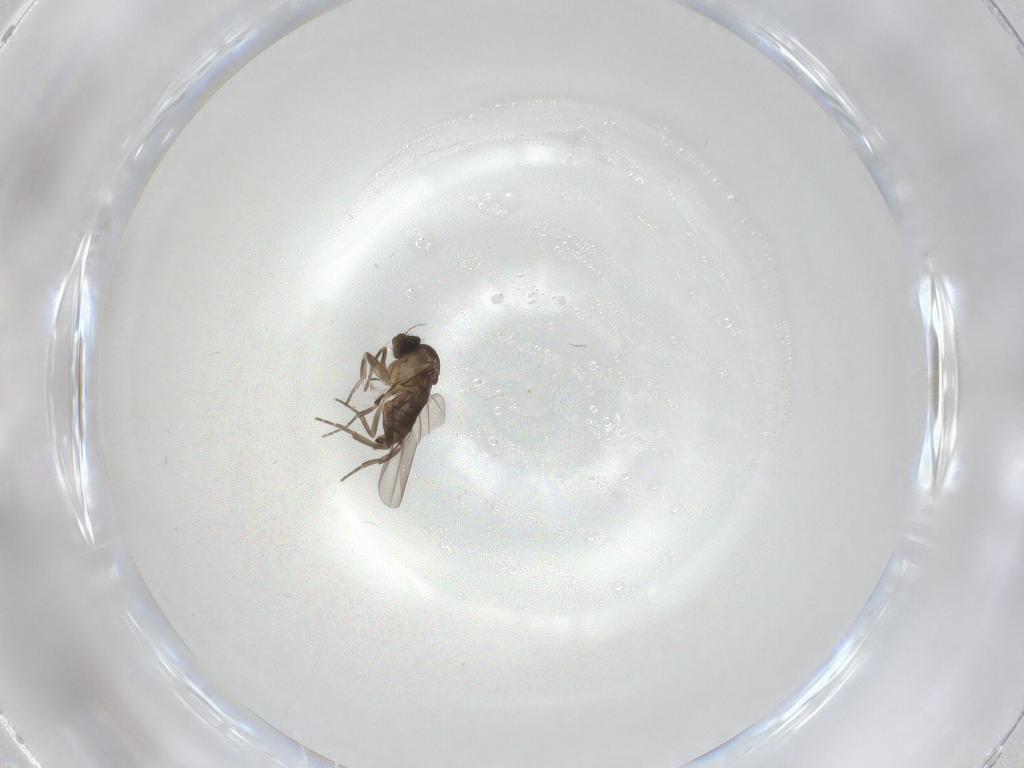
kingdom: Animalia
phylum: Arthropoda
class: Insecta
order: Diptera
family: Phoridae
